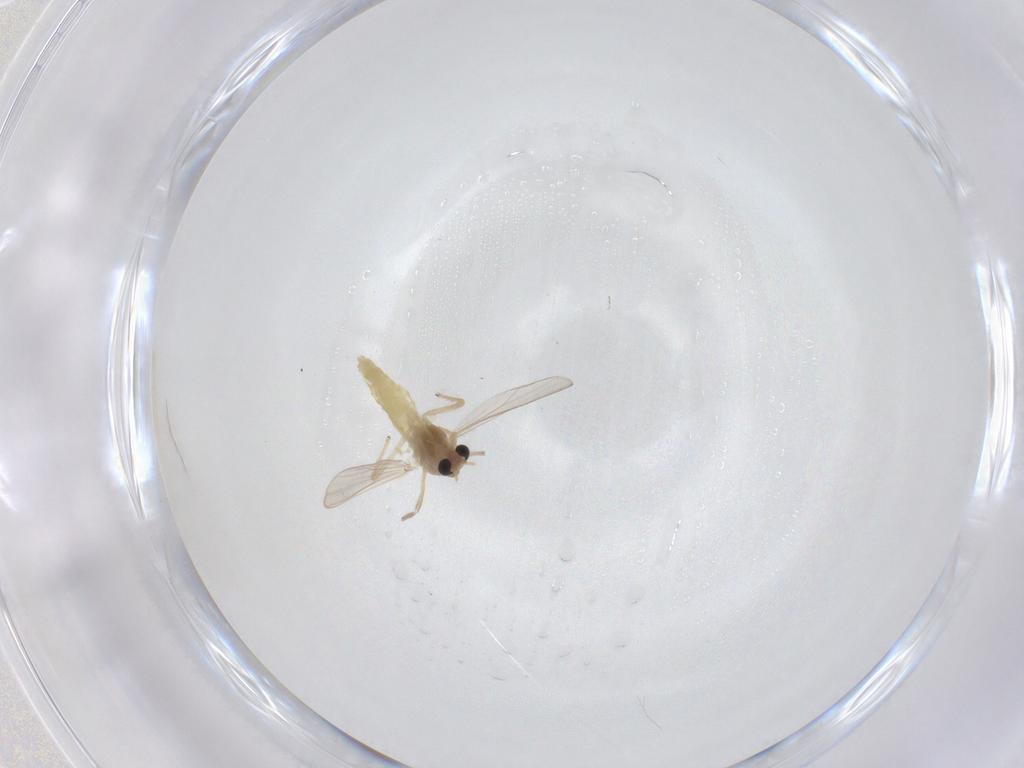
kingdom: Animalia
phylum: Arthropoda
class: Insecta
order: Diptera
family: Chironomidae
